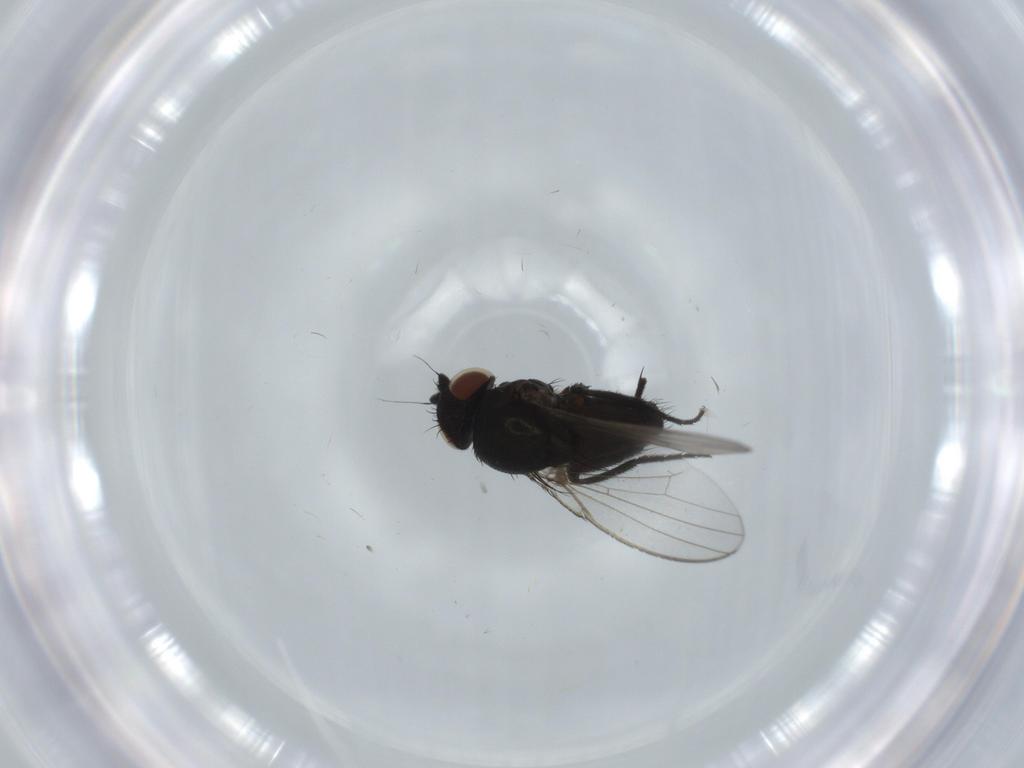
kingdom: Animalia
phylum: Arthropoda
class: Insecta
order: Diptera
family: Milichiidae
